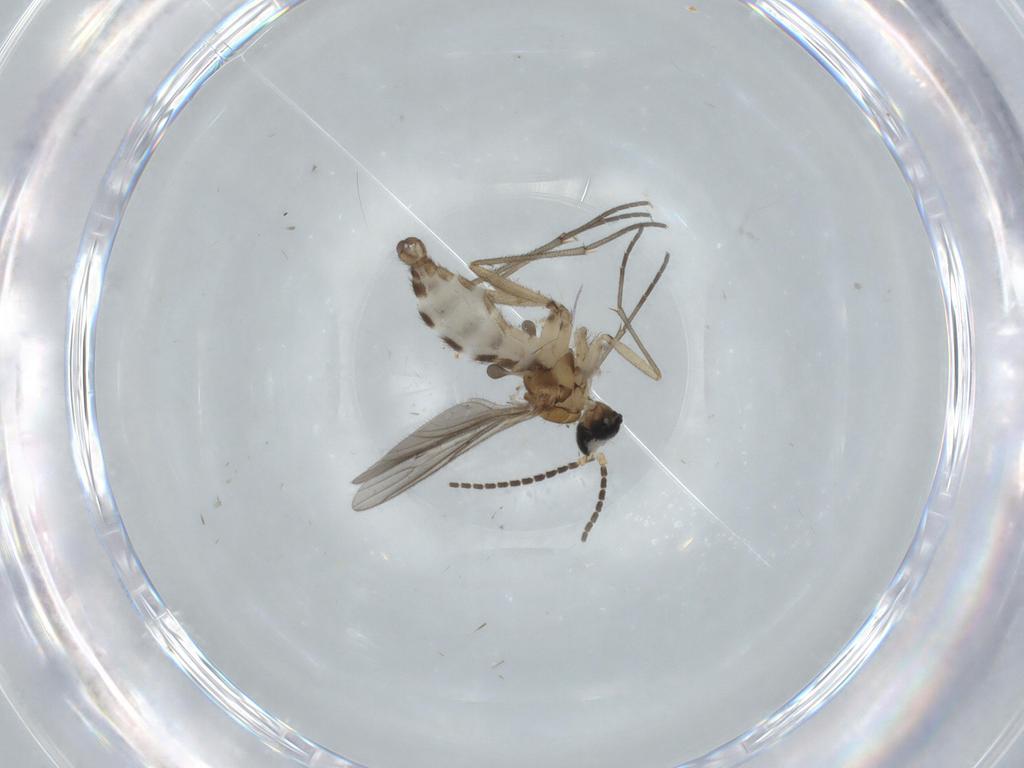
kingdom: Animalia
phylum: Arthropoda
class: Insecta
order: Diptera
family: Sciaridae
